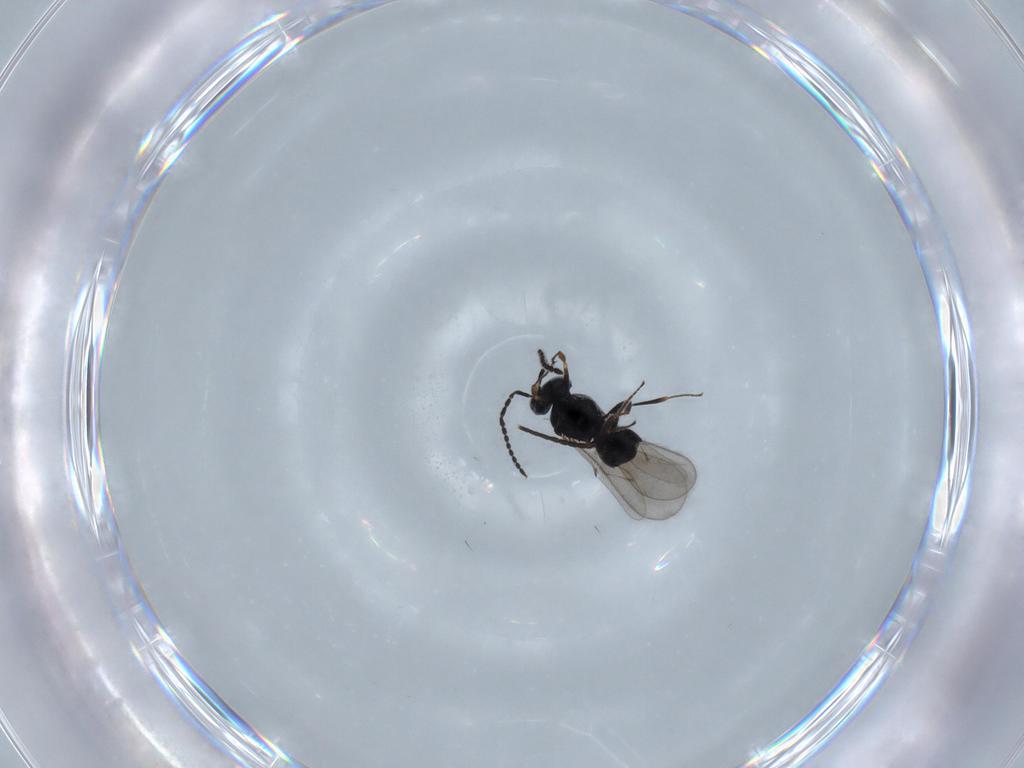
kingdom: Animalia
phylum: Arthropoda
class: Insecta
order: Hymenoptera
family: Scelionidae
